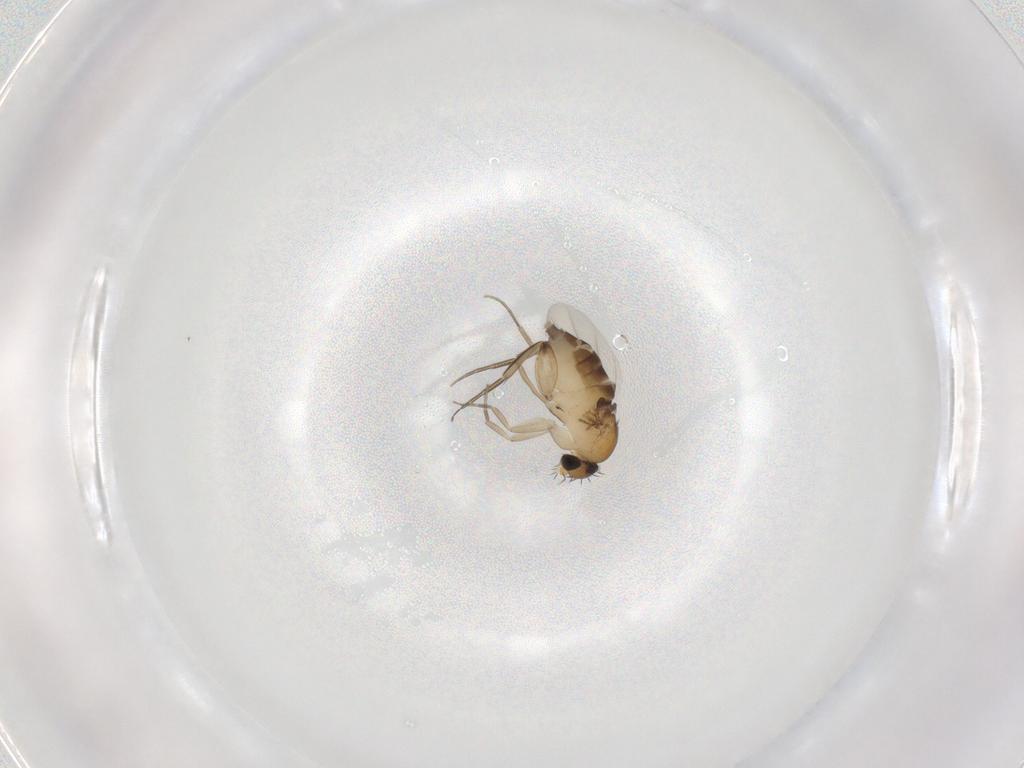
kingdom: Animalia
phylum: Arthropoda
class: Insecta
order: Diptera
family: Phoridae
